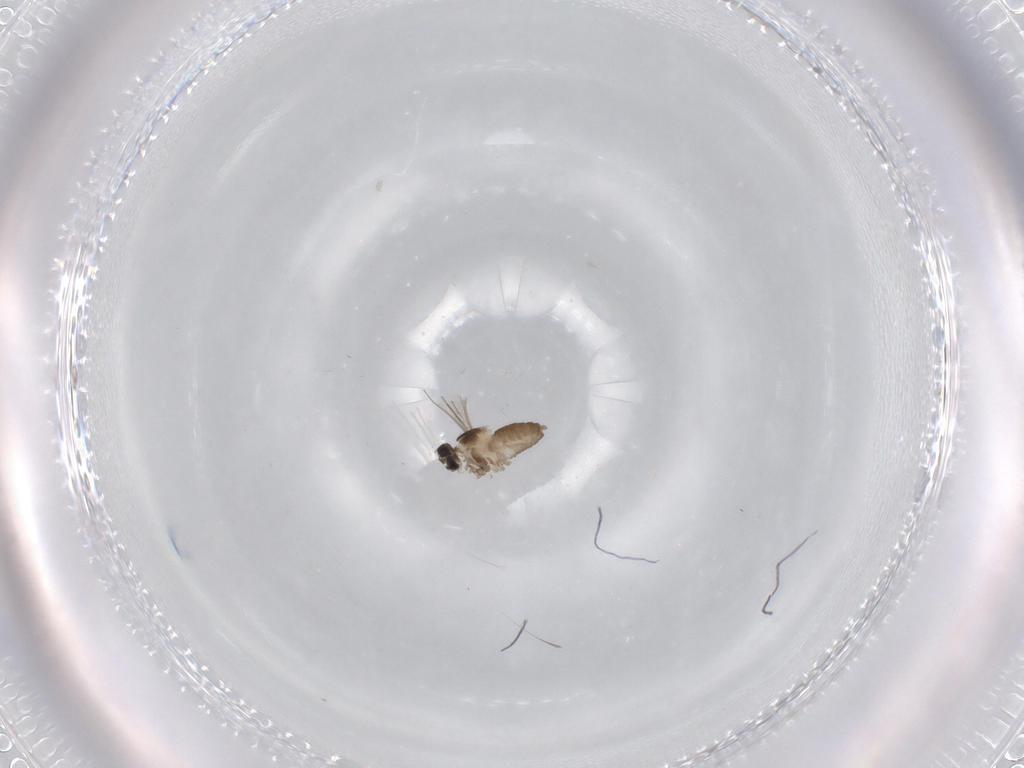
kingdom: Animalia
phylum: Arthropoda
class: Insecta
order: Diptera
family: Cecidomyiidae
